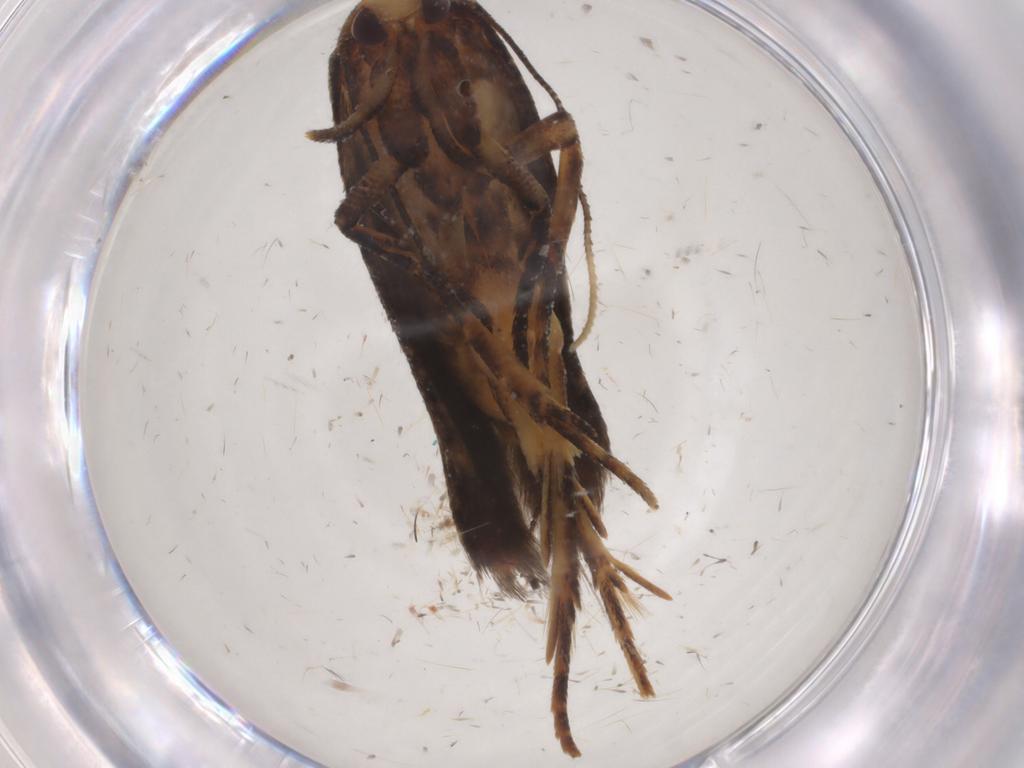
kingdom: Animalia
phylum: Arthropoda
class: Insecta
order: Lepidoptera
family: Cosmopterigidae
